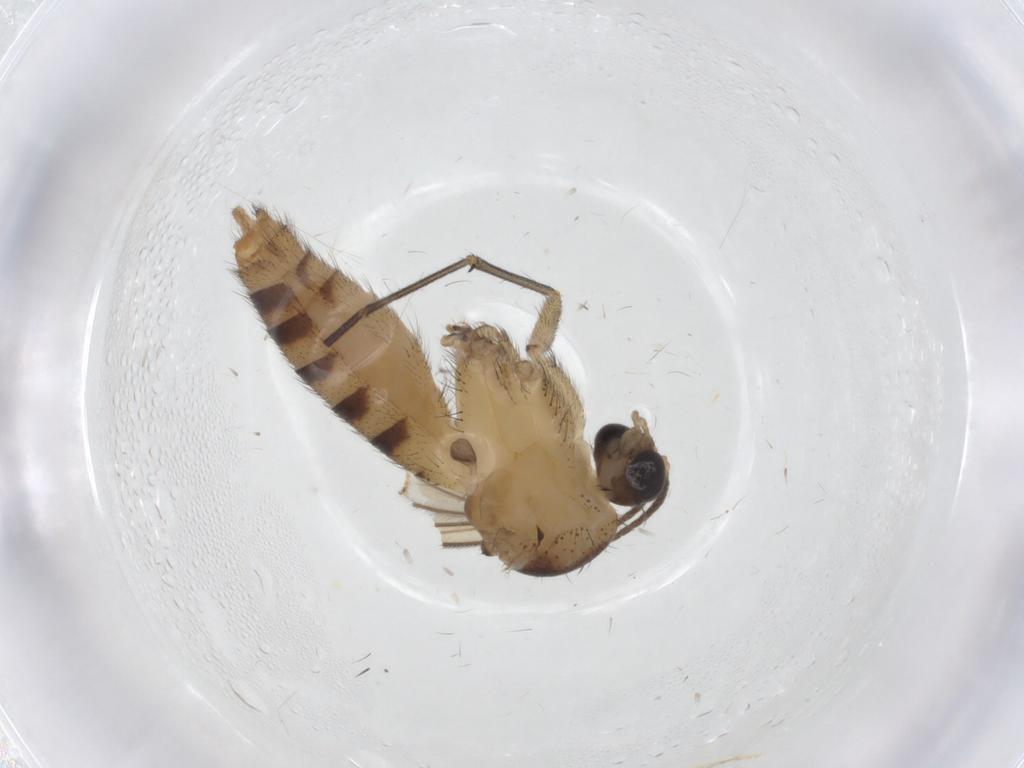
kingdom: Animalia
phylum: Arthropoda
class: Insecta
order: Diptera
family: Mycetophilidae
